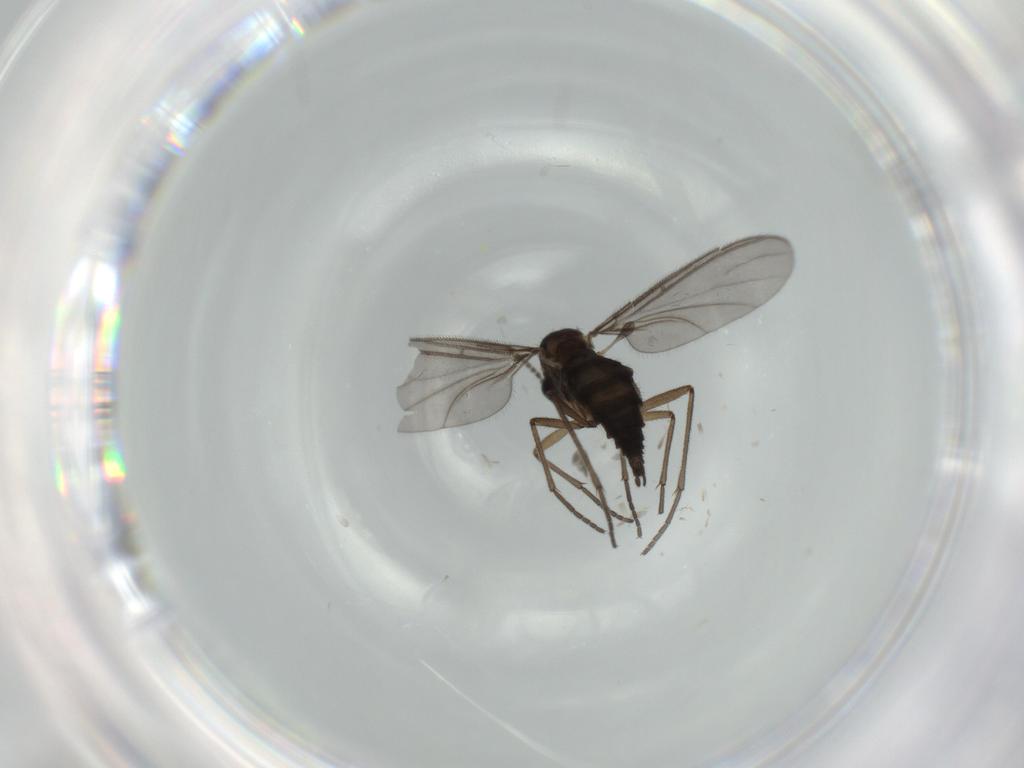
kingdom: Animalia
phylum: Arthropoda
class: Insecta
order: Diptera
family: Sciaridae
